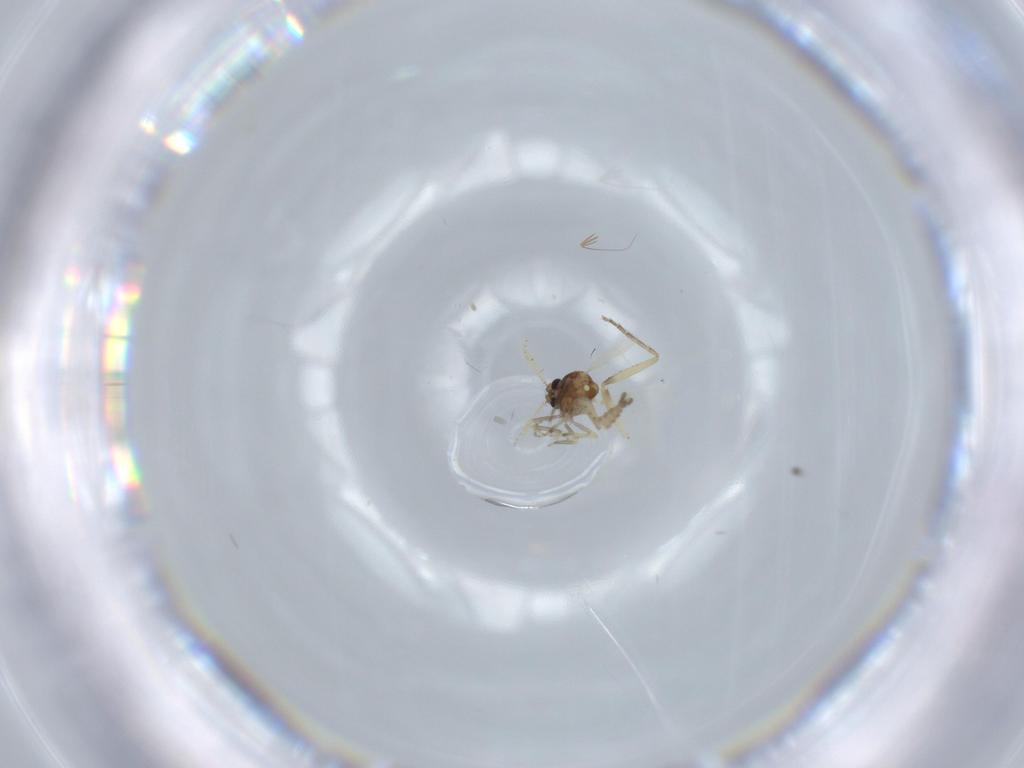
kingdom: Animalia
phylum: Arthropoda
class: Insecta
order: Diptera
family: Ceratopogonidae
